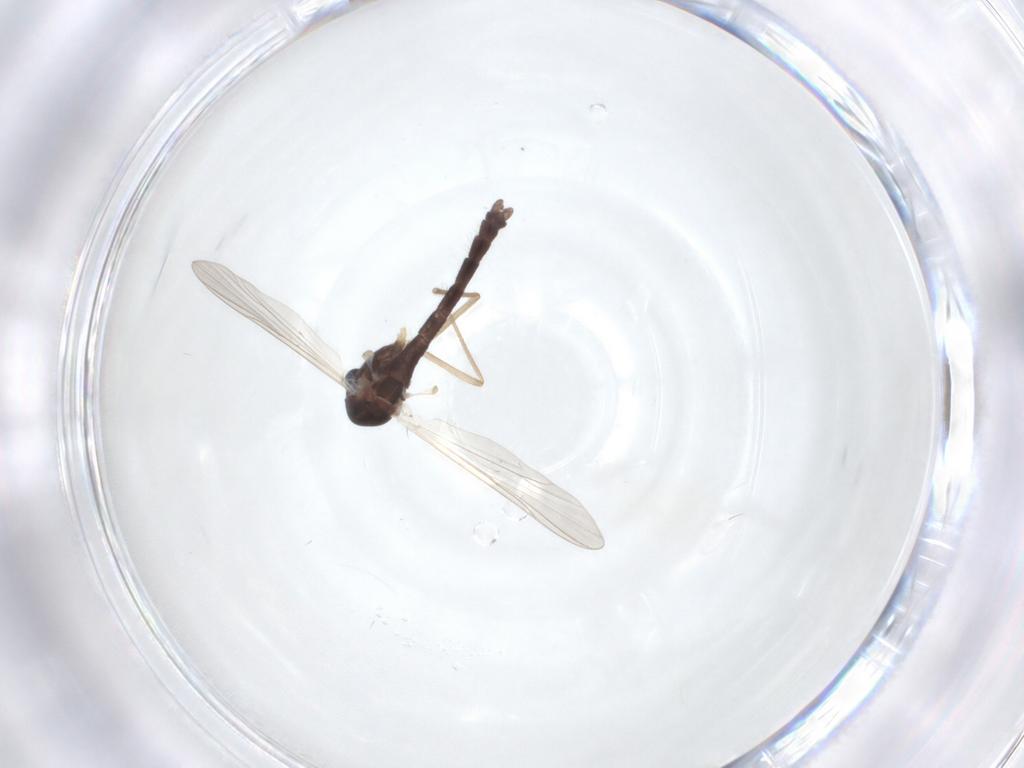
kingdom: Animalia
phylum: Arthropoda
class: Insecta
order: Diptera
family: Chironomidae
